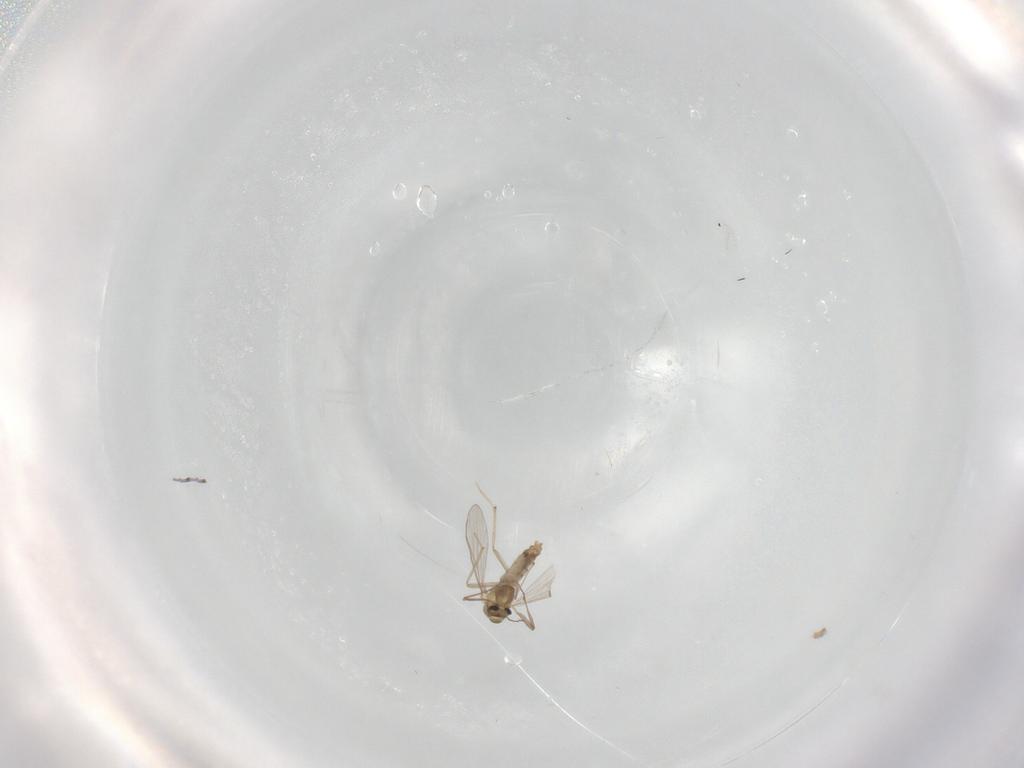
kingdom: Animalia
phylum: Arthropoda
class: Insecta
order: Diptera
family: Chironomidae
